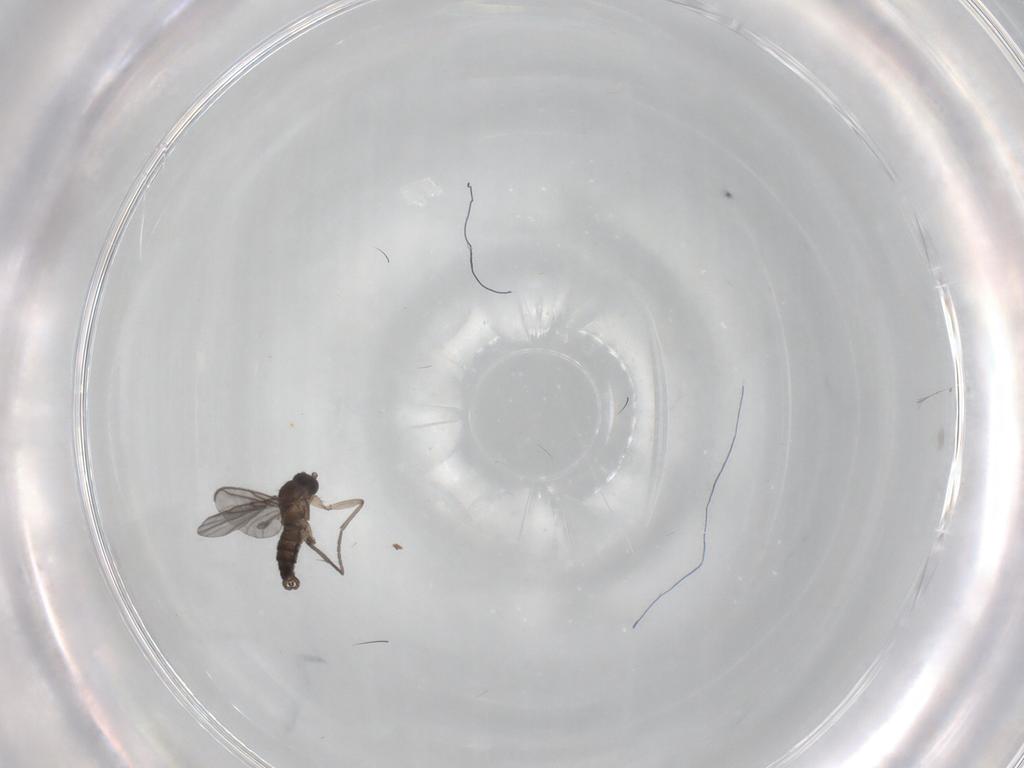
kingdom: Animalia
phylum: Arthropoda
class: Insecta
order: Diptera
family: Sciaridae
